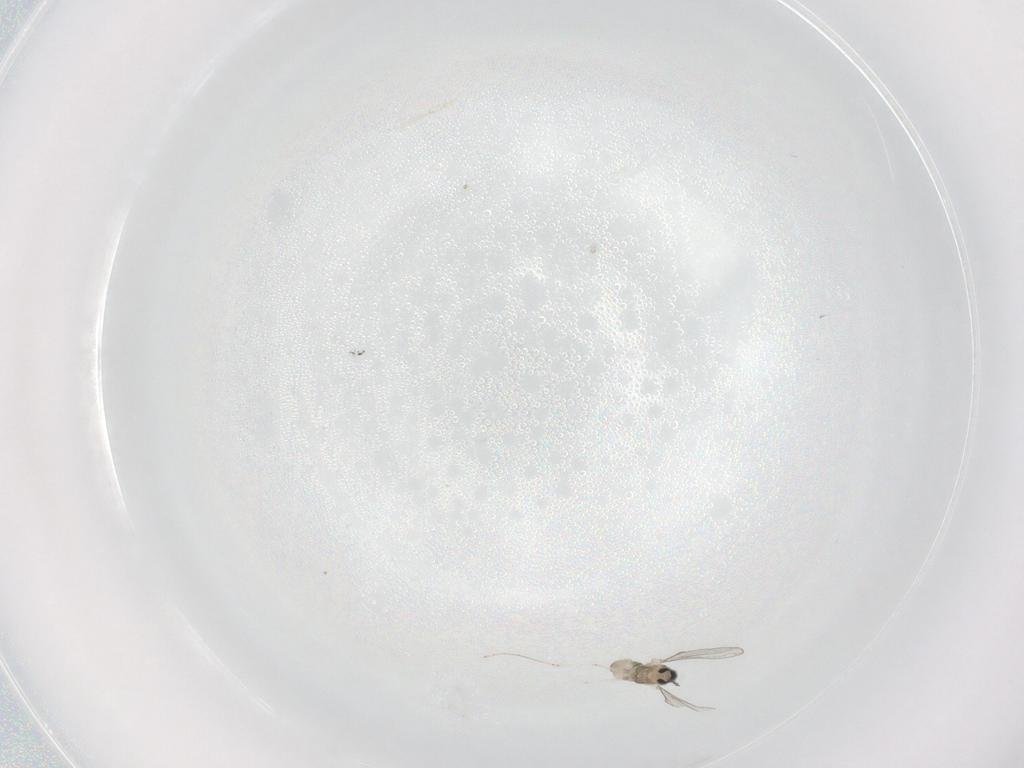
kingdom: Animalia
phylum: Arthropoda
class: Insecta
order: Diptera
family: Cecidomyiidae
